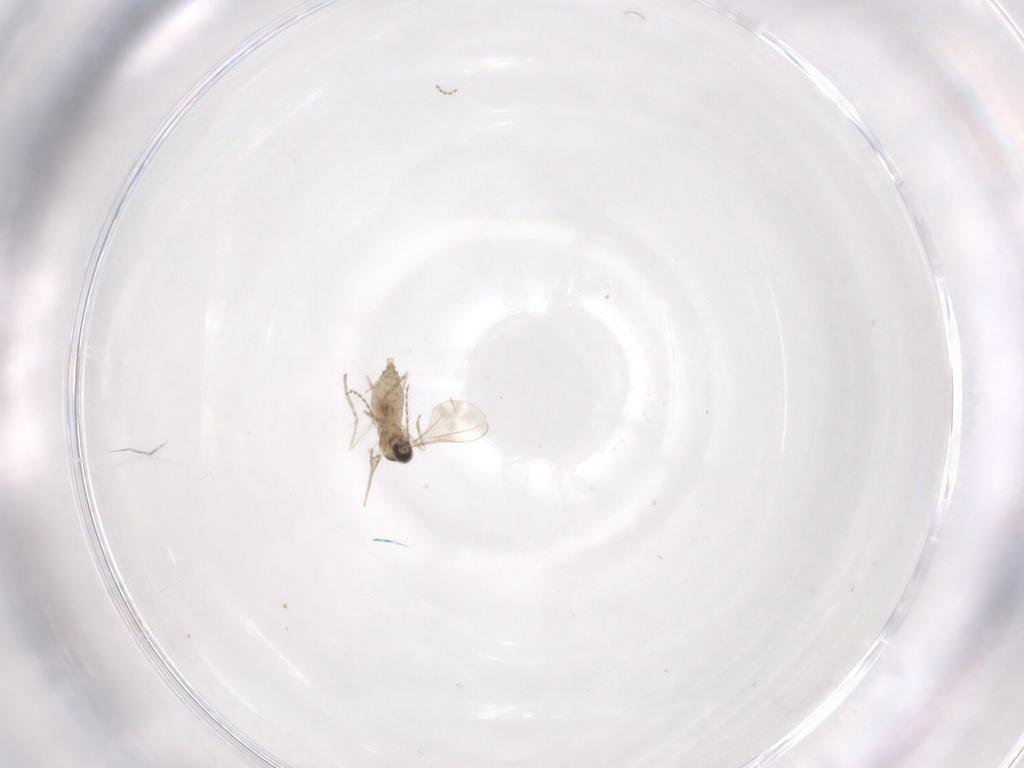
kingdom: Animalia
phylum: Arthropoda
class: Insecta
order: Diptera
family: Cecidomyiidae
